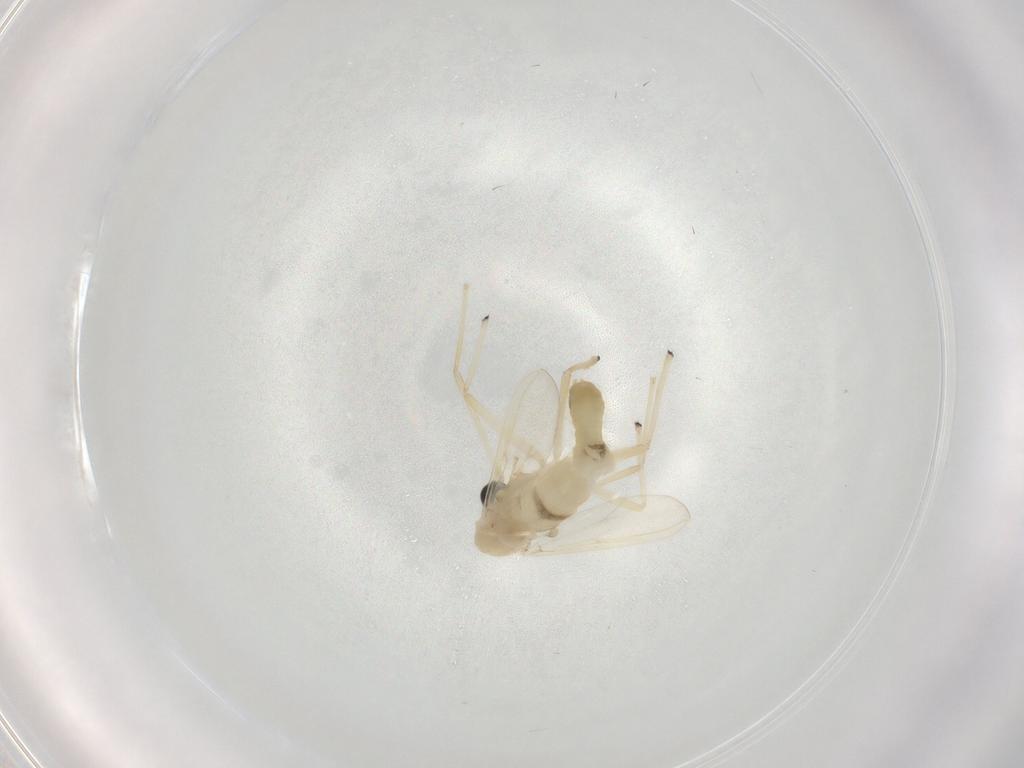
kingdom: Animalia
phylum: Arthropoda
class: Insecta
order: Diptera
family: Chironomidae
